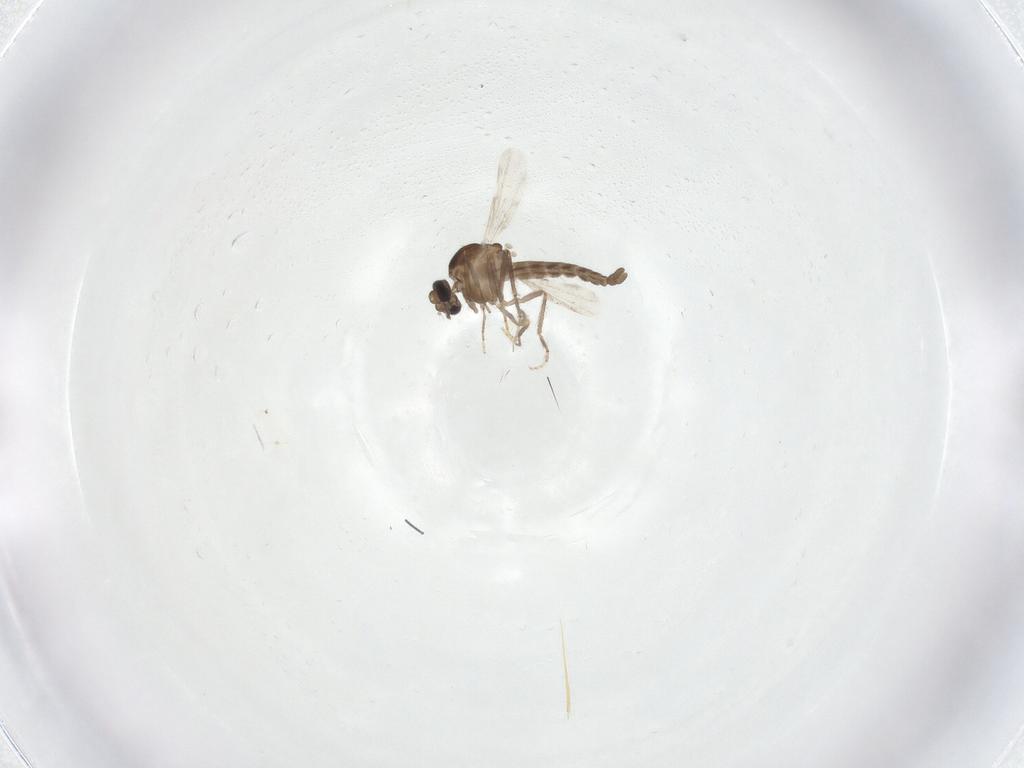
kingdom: Animalia
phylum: Arthropoda
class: Insecta
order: Diptera
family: Ceratopogonidae
